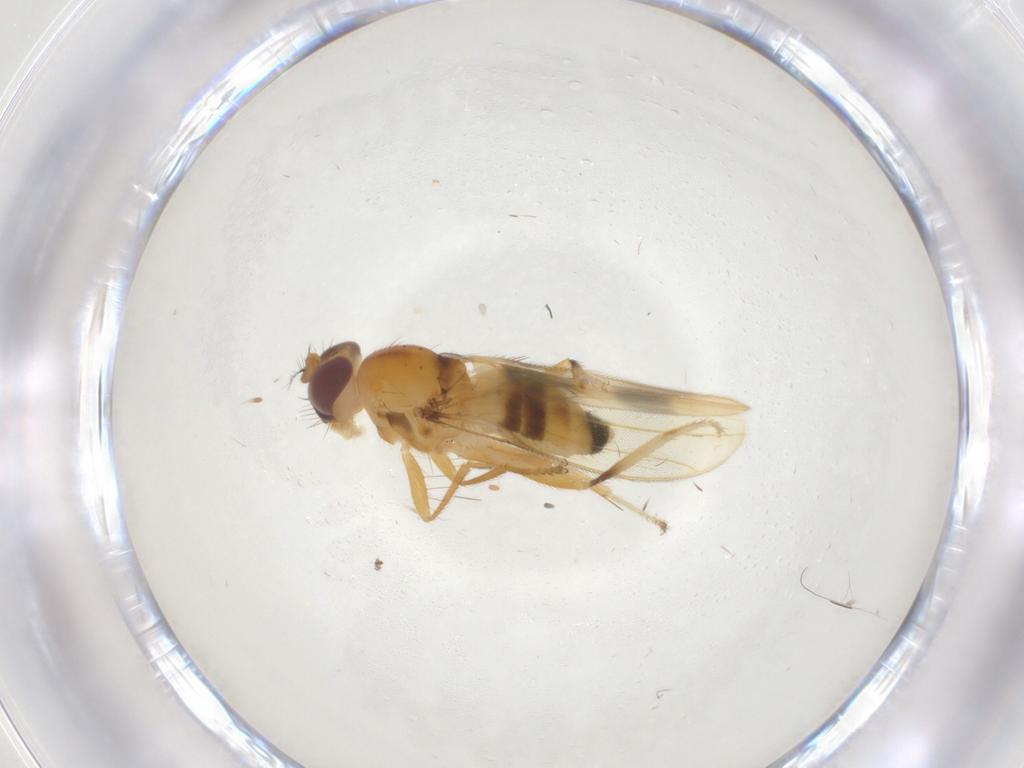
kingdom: Animalia
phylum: Arthropoda
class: Insecta
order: Diptera
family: Periscelididae
